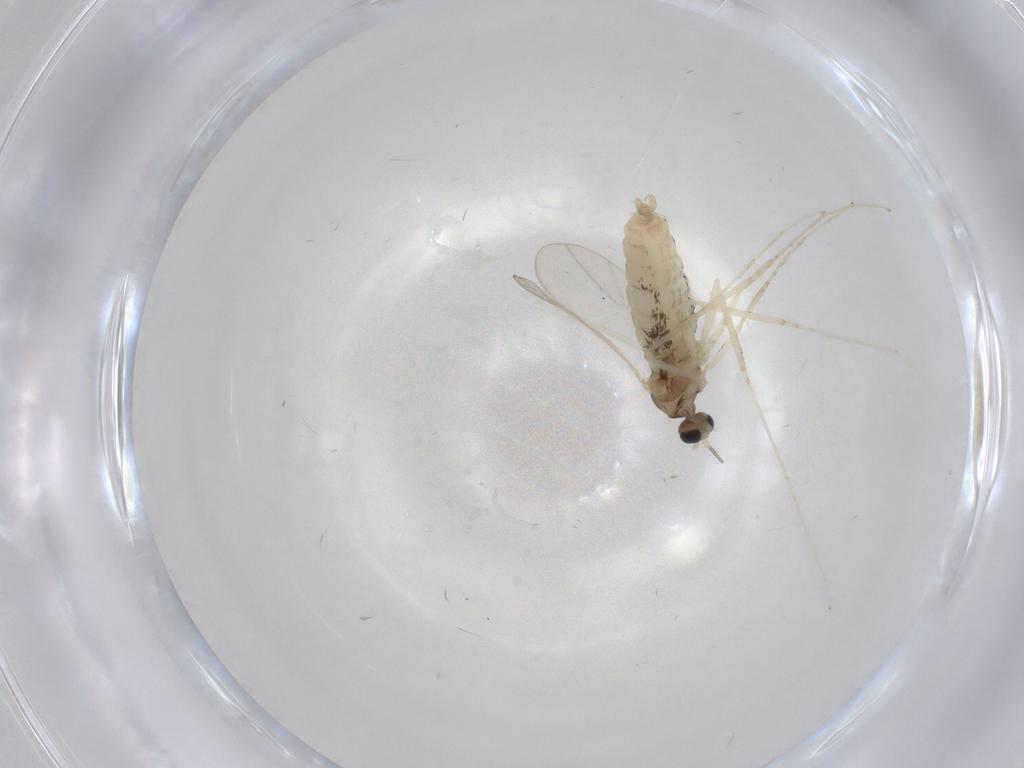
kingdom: Animalia
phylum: Arthropoda
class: Insecta
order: Diptera
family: Cecidomyiidae
